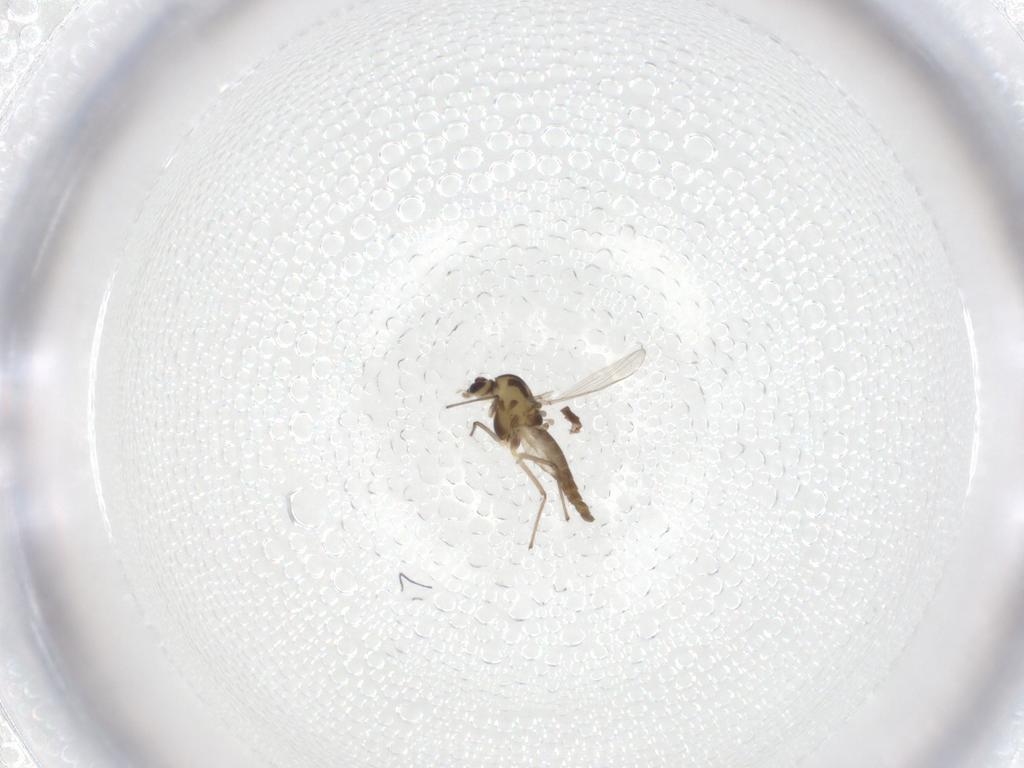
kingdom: Animalia
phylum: Arthropoda
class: Insecta
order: Diptera
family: Cecidomyiidae
